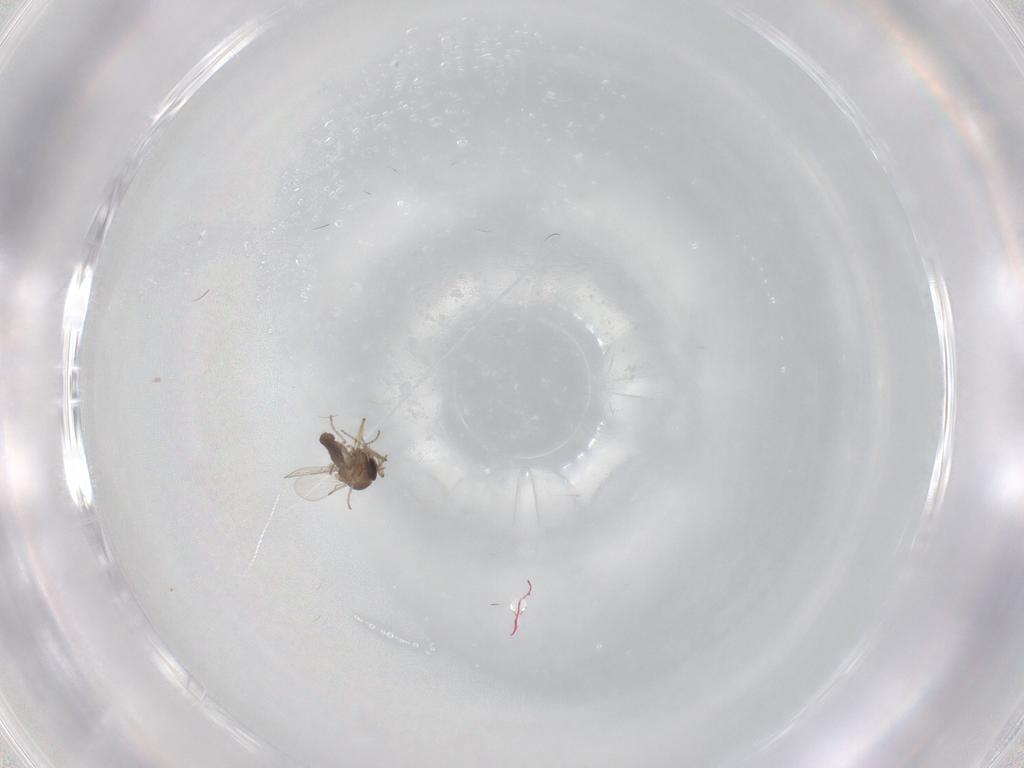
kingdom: Animalia
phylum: Arthropoda
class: Insecta
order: Diptera
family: Ceratopogonidae
